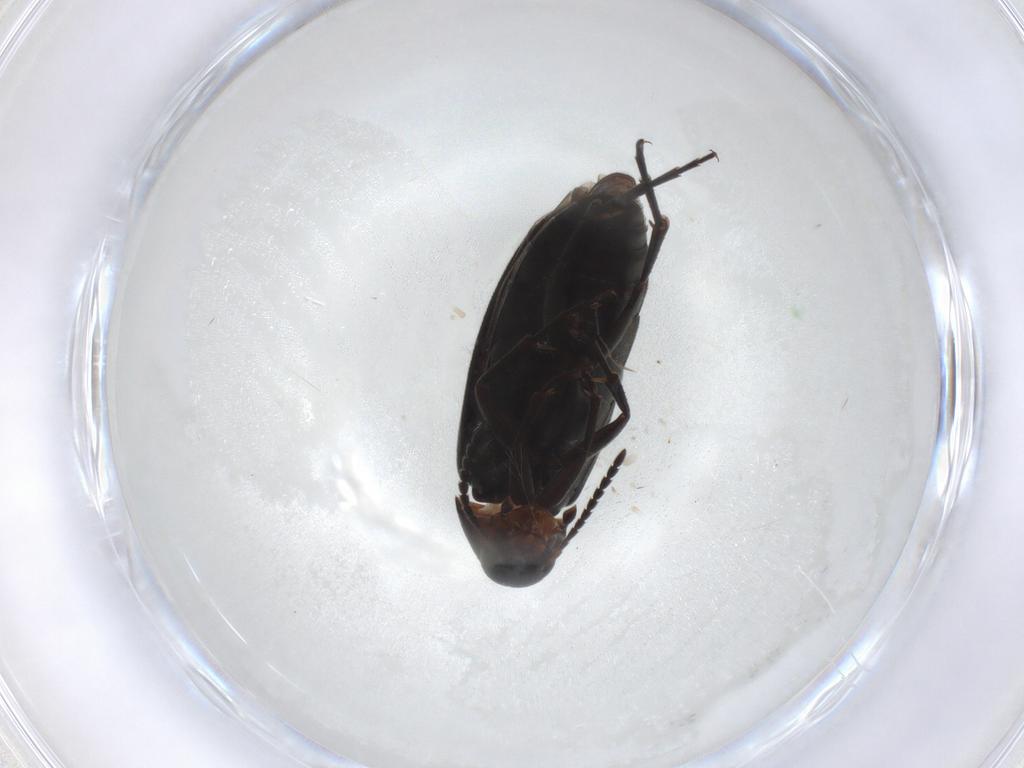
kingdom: Animalia
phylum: Arthropoda
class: Insecta
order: Coleoptera
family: Scraptiidae
